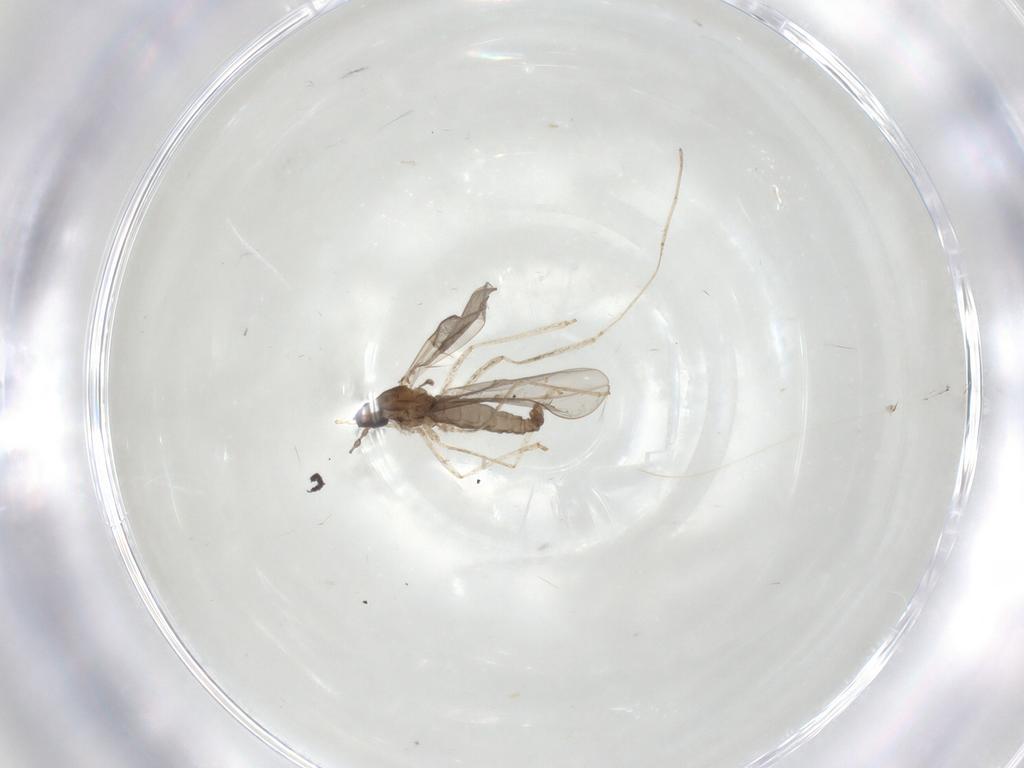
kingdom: Animalia
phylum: Arthropoda
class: Insecta
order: Diptera
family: Cecidomyiidae
